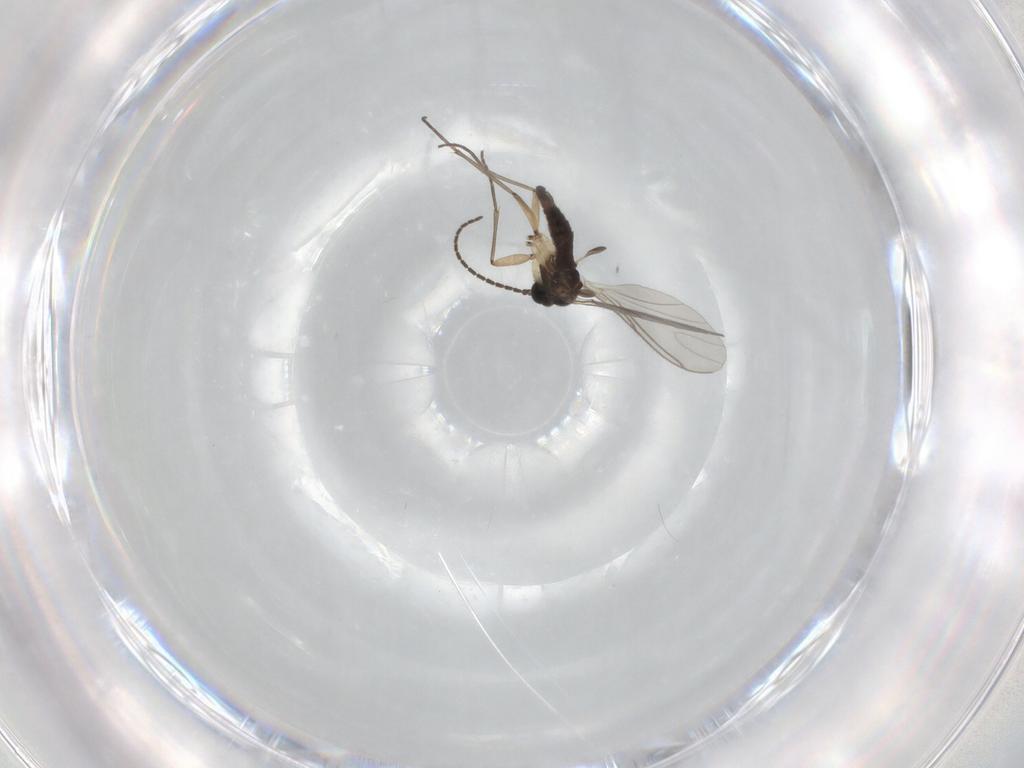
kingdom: Animalia
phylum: Arthropoda
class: Insecta
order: Diptera
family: Sciaridae
